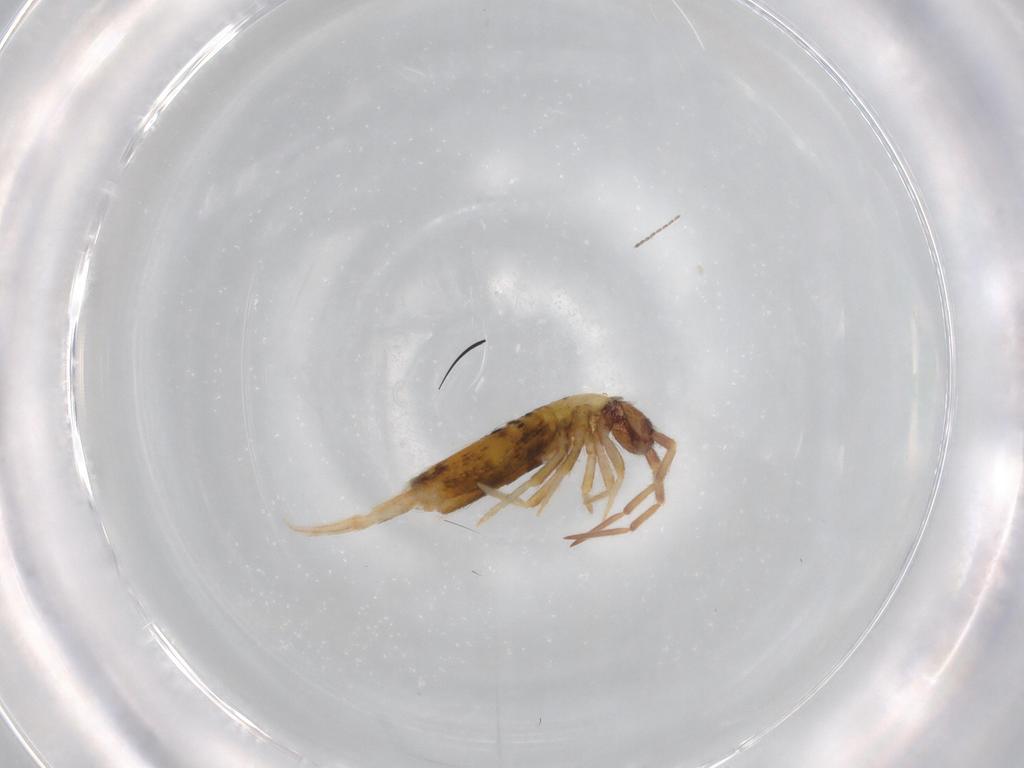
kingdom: Animalia
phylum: Arthropoda
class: Collembola
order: Entomobryomorpha
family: Entomobryidae
